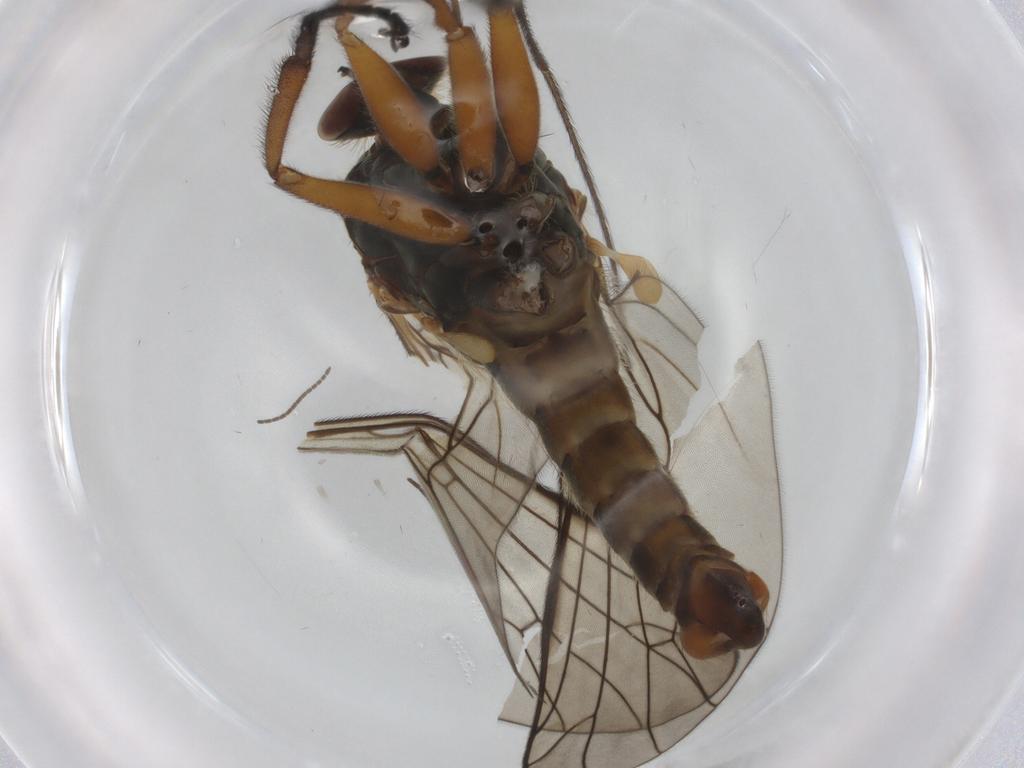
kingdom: Animalia
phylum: Arthropoda
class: Insecta
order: Diptera
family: Empididae
